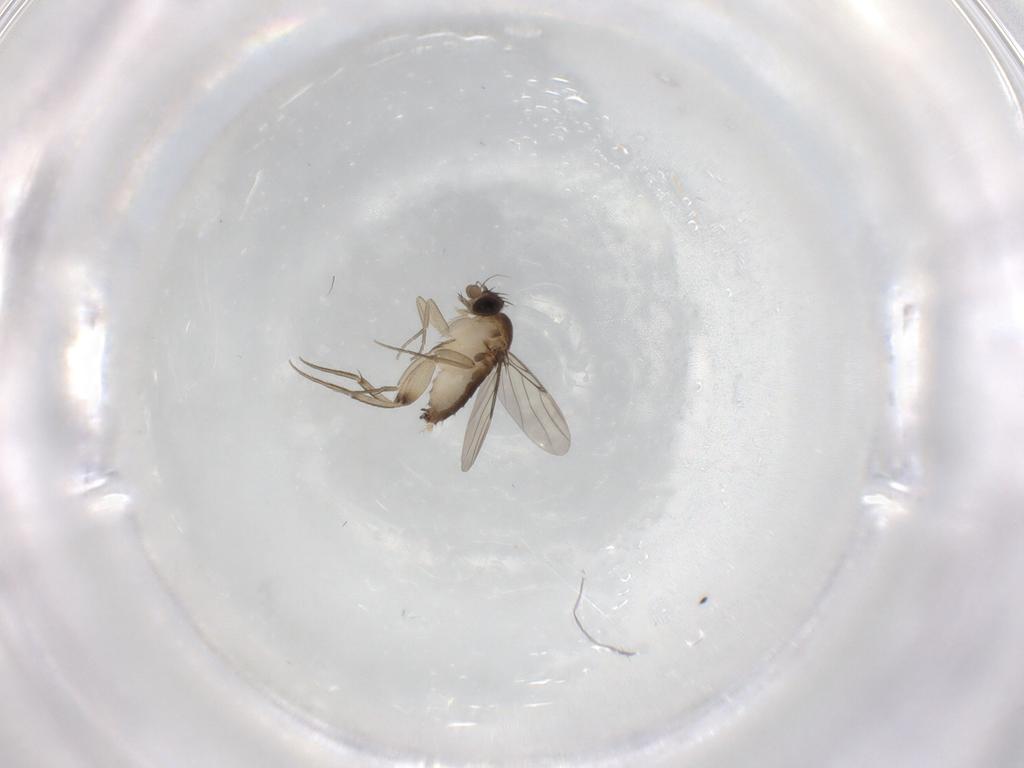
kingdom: Animalia
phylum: Arthropoda
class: Insecta
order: Diptera
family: Phoridae
